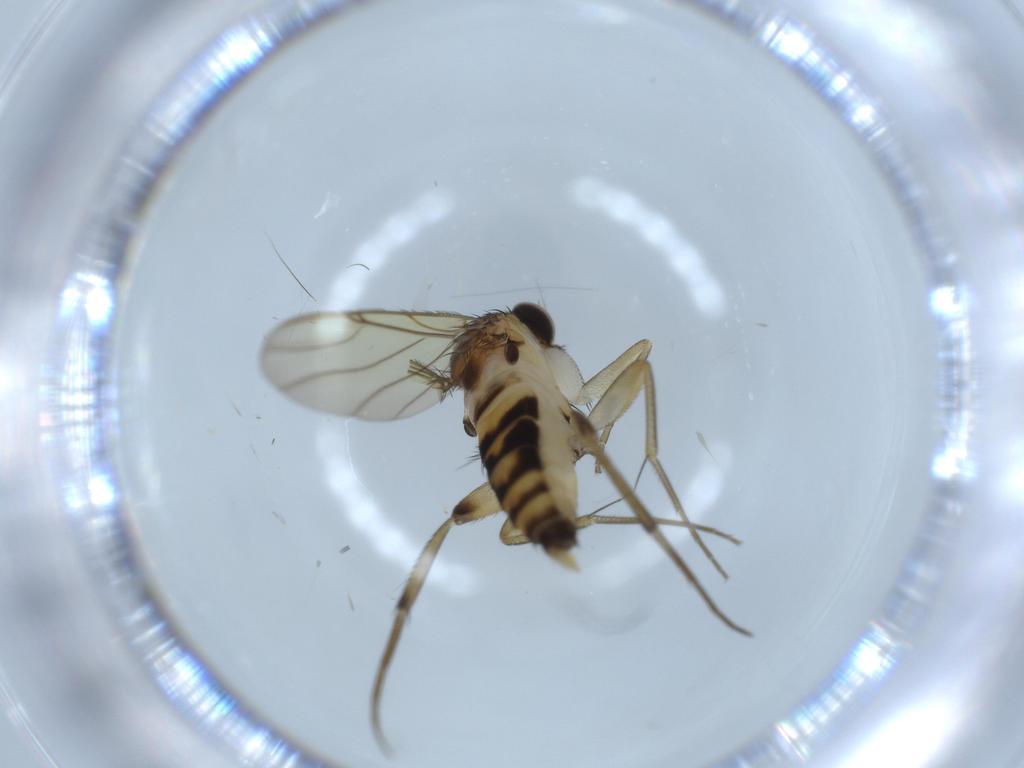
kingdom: Animalia
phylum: Arthropoda
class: Insecta
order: Diptera
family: Phoridae
